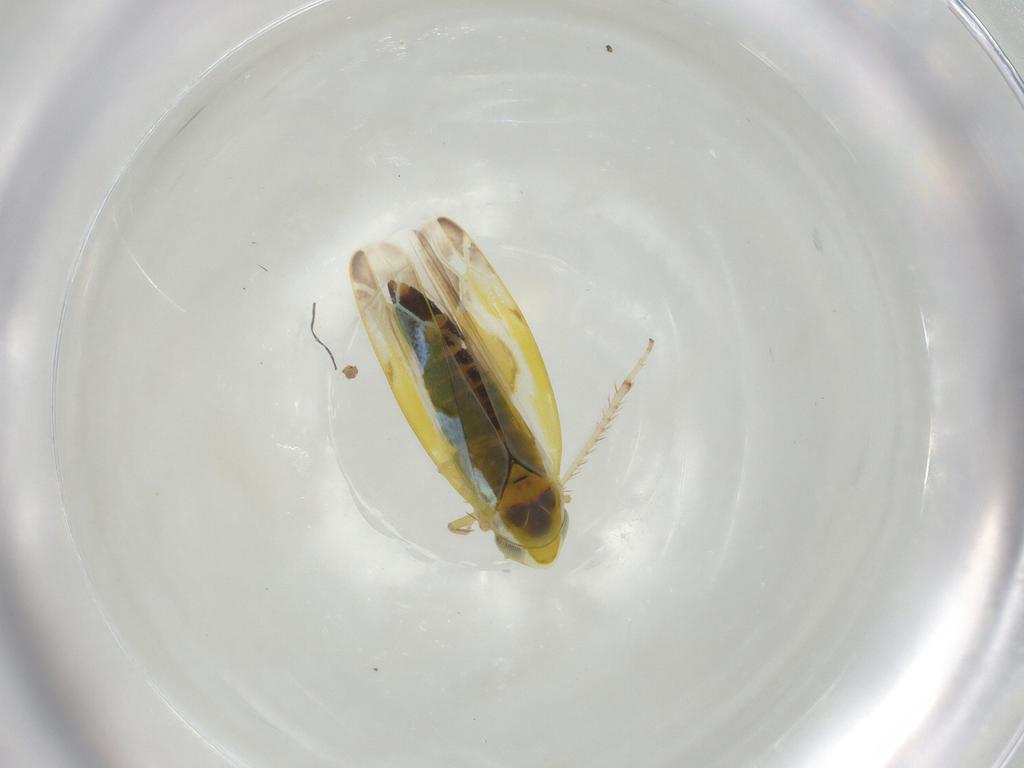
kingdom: Animalia
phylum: Arthropoda
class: Insecta
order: Hemiptera
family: Cicadellidae
